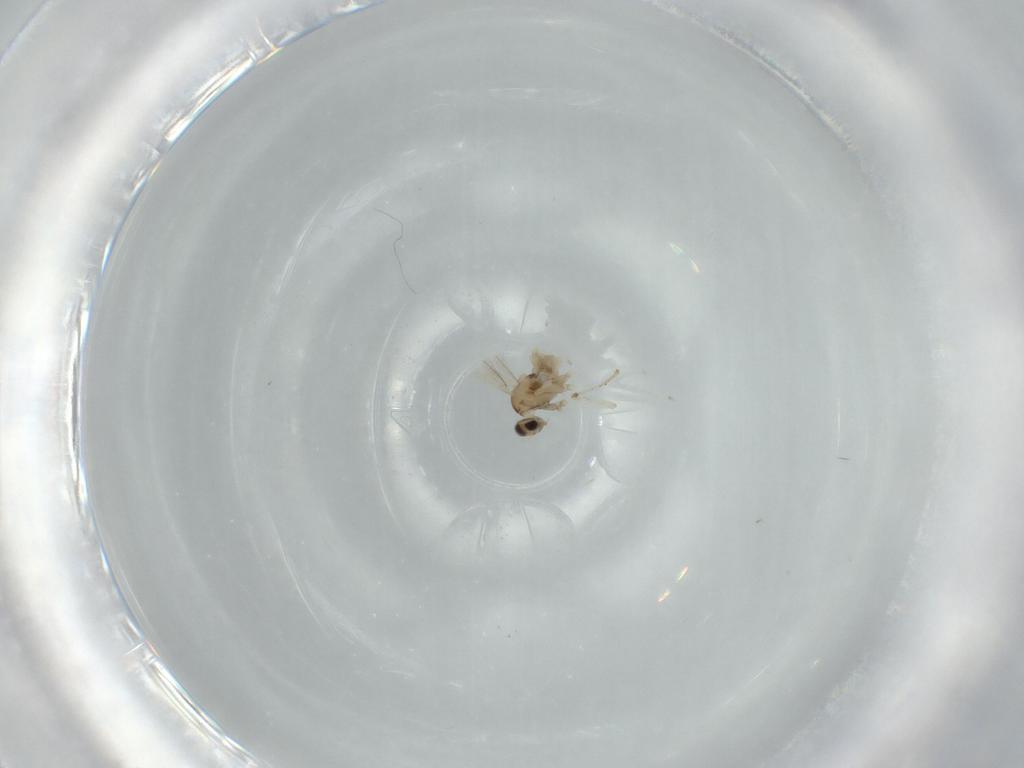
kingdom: Animalia
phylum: Arthropoda
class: Insecta
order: Diptera
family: Cecidomyiidae
